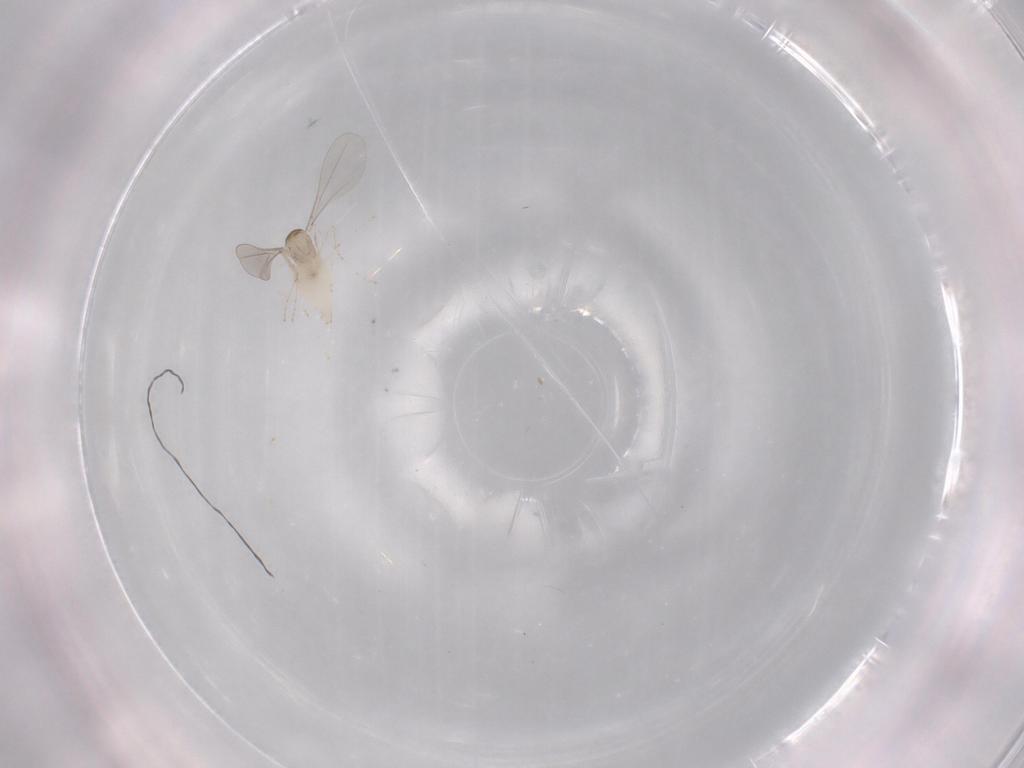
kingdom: Animalia
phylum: Arthropoda
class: Insecta
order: Diptera
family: Cecidomyiidae
